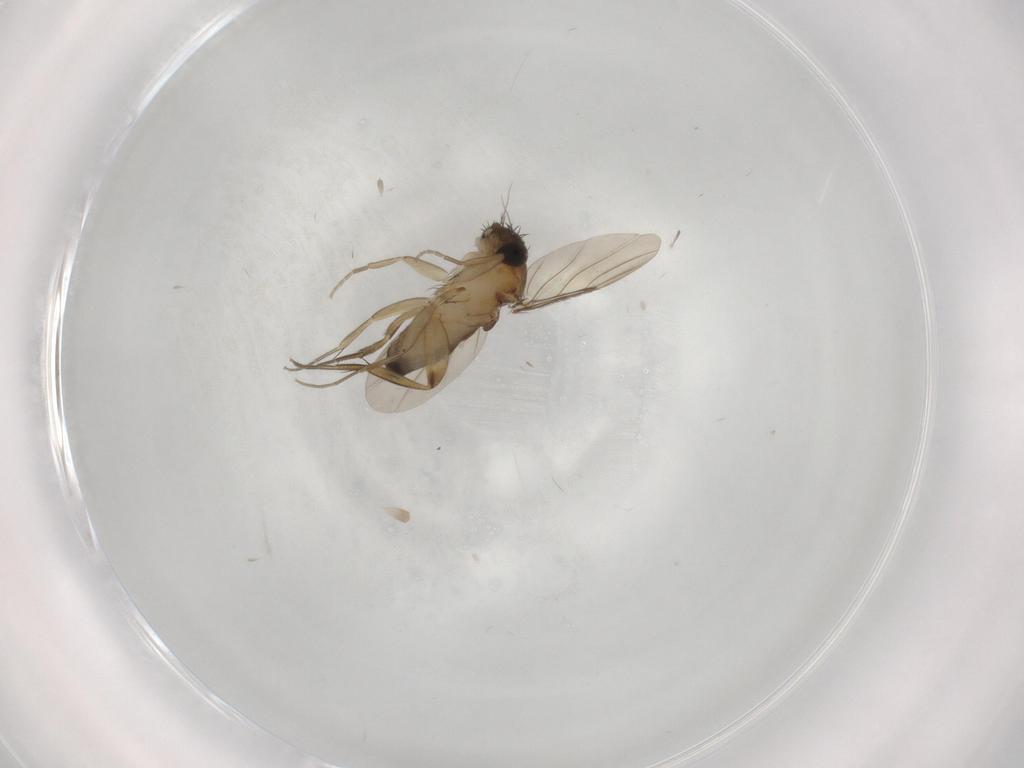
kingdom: Animalia
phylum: Arthropoda
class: Insecta
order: Diptera
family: Phoridae
